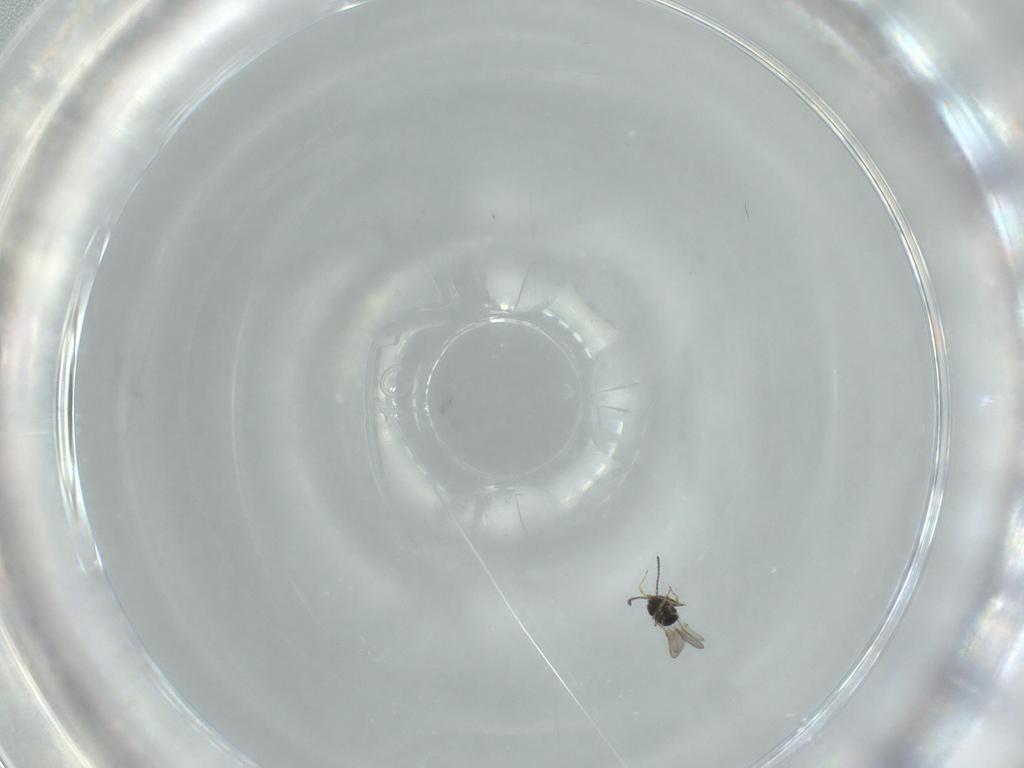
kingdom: Animalia
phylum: Arthropoda
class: Insecta
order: Hymenoptera
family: Scelionidae
